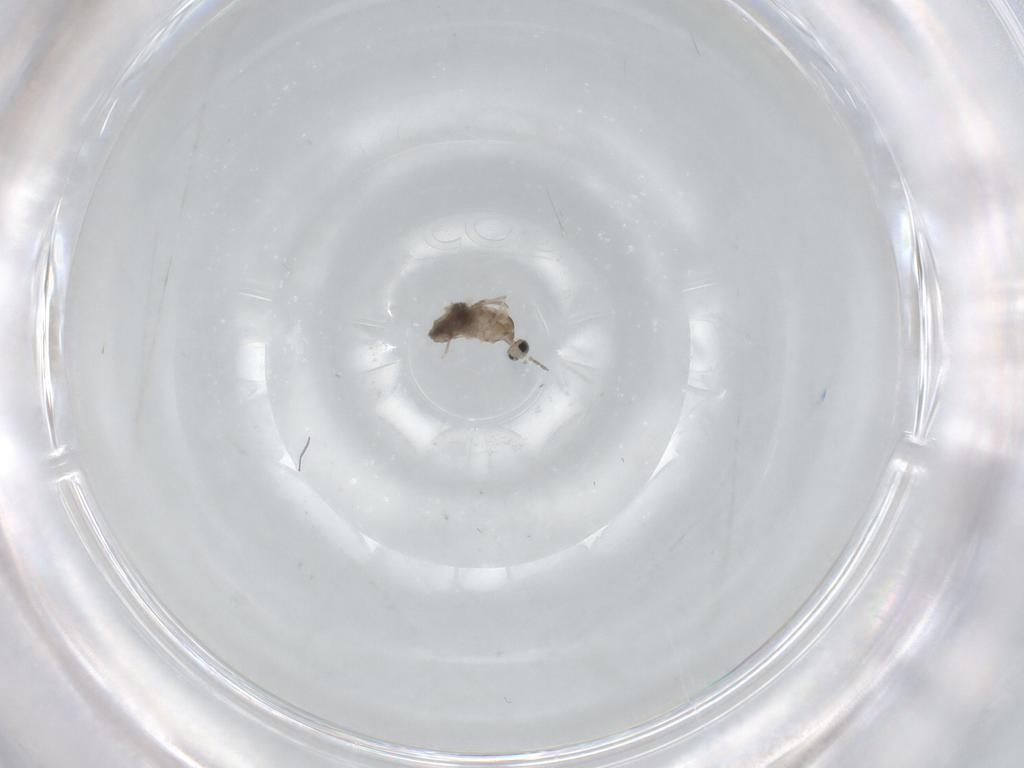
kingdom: Animalia
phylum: Arthropoda
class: Insecta
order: Diptera
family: Cecidomyiidae
